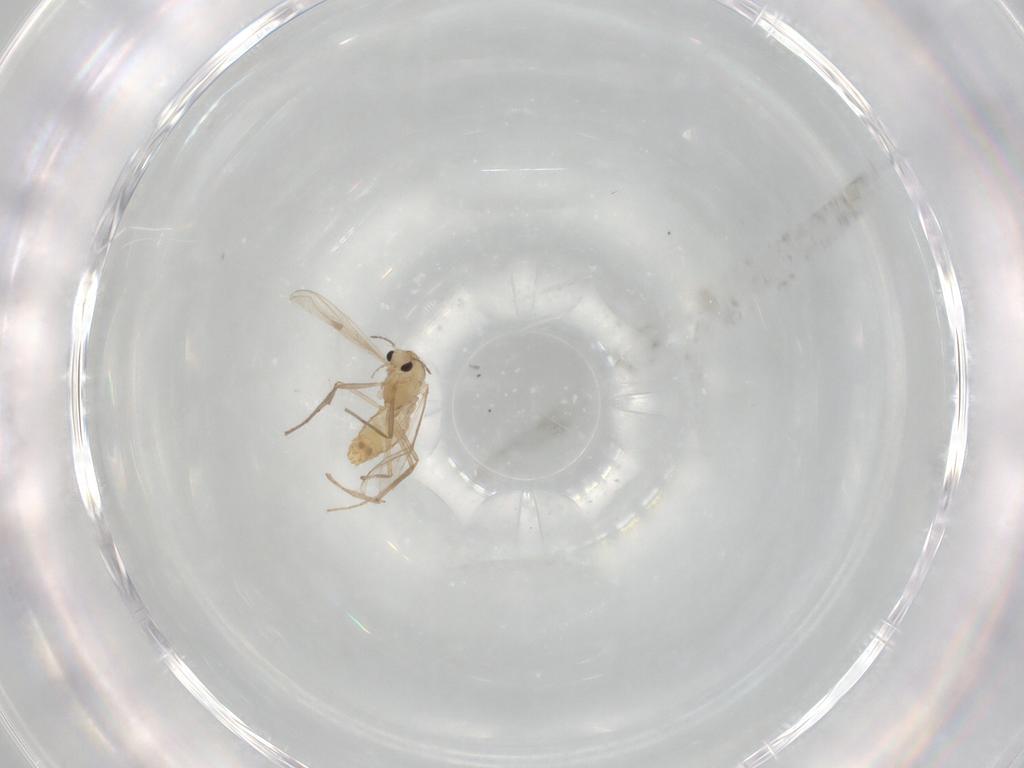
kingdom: Animalia
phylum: Arthropoda
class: Insecta
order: Diptera
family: Chironomidae
